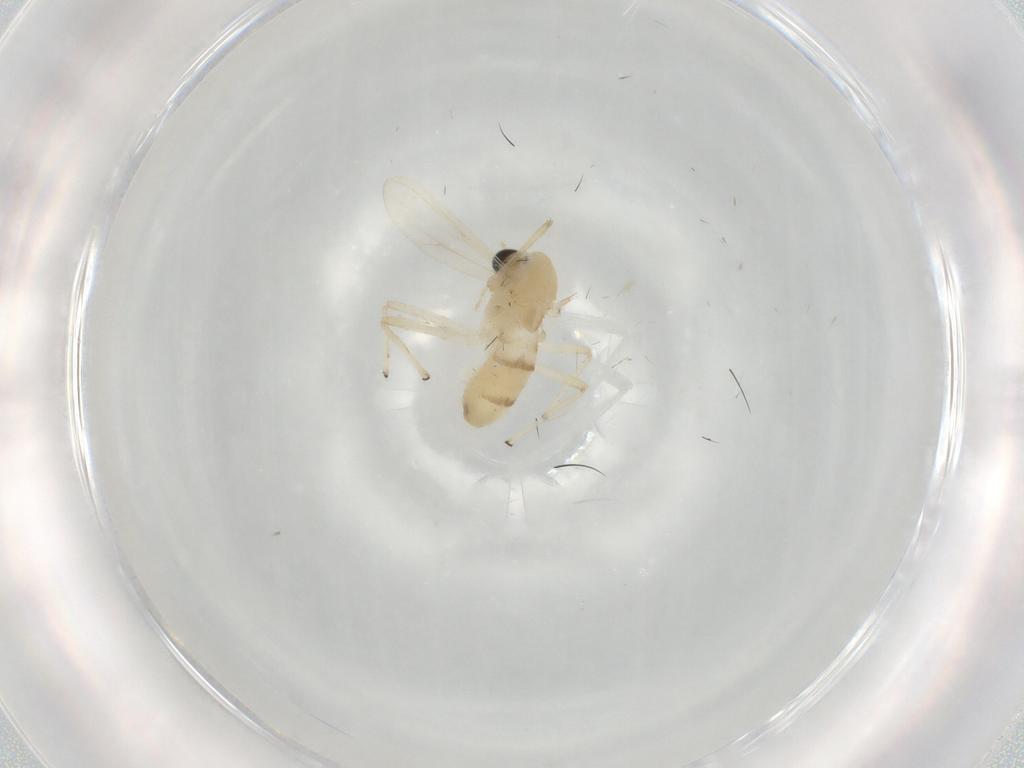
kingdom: Animalia
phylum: Arthropoda
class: Insecta
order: Diptera
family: Chironomidae
